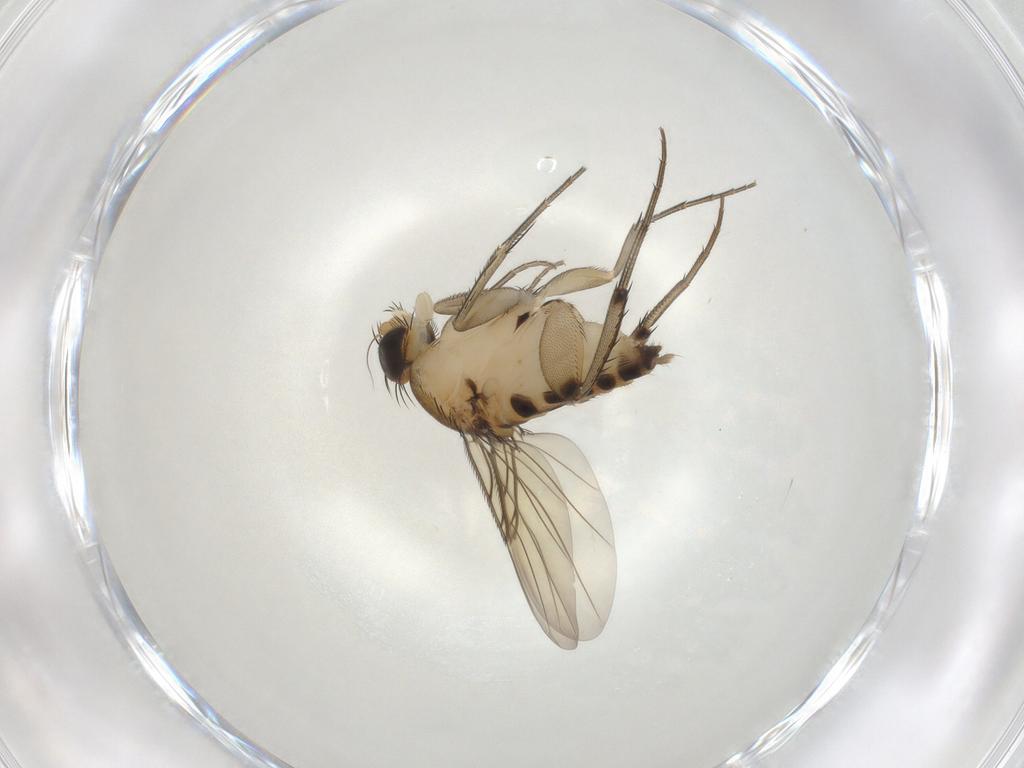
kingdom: Animalia
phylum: Arthropoda
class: Insecta
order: Diptera
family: Phoridae
